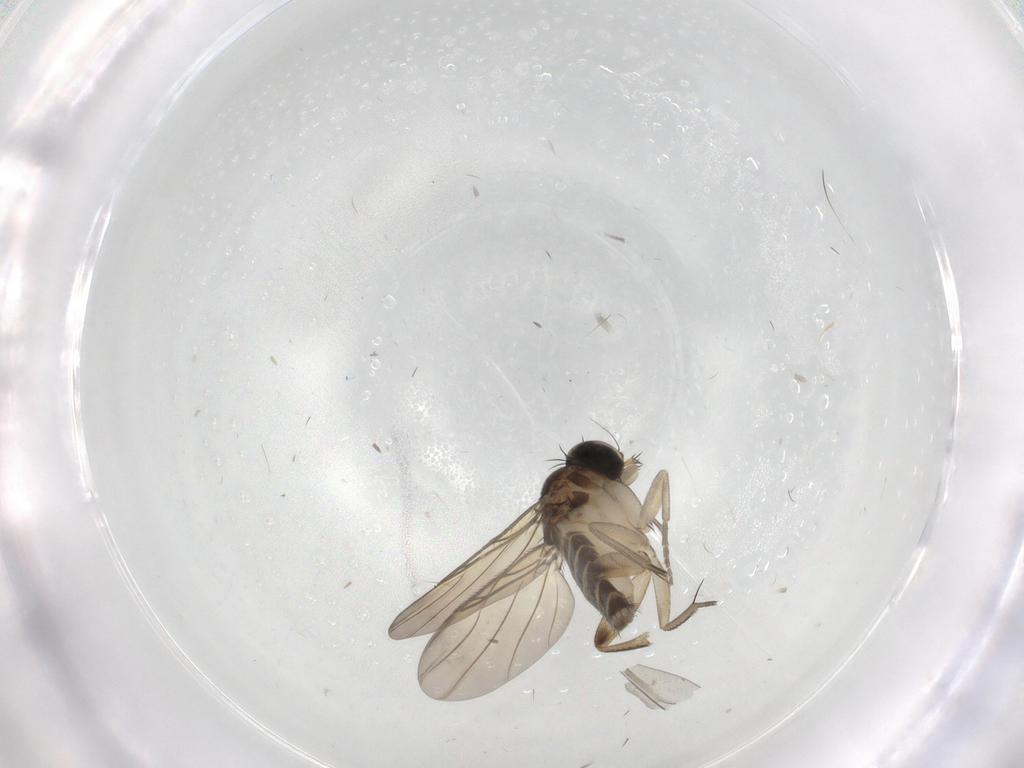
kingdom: Animalia
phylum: Arthropoda
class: Insecta
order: Diptera
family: Phoridae
